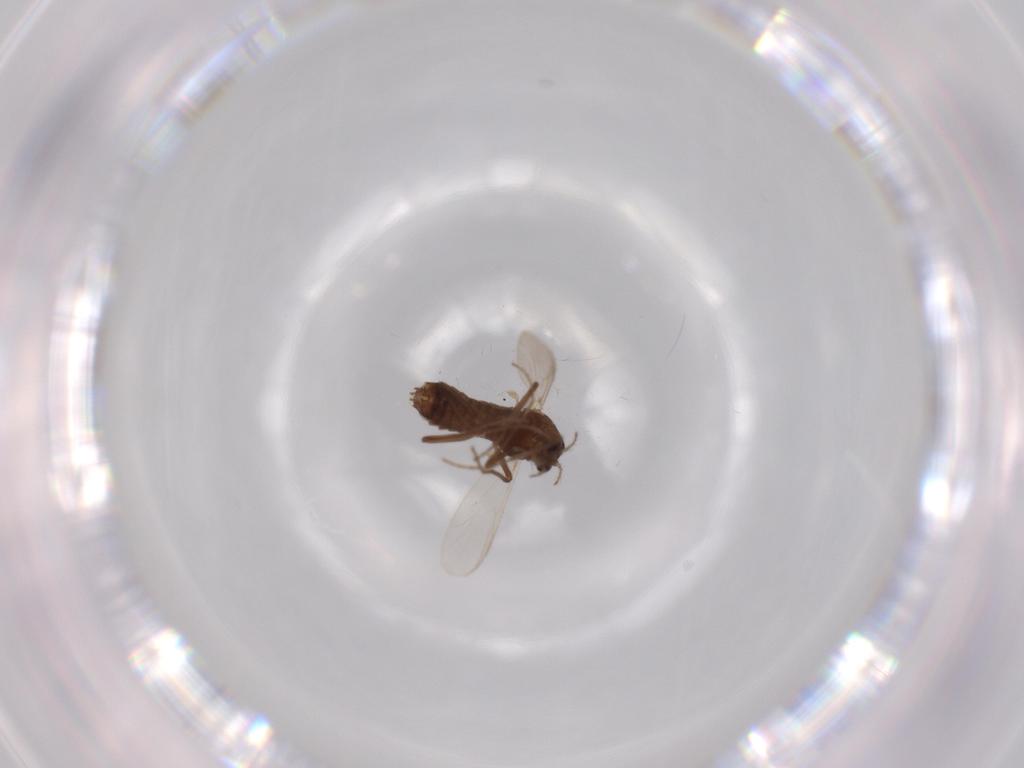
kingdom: Animalia
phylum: Arthropoda
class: Insecta
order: Diptera
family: Chironomidae
